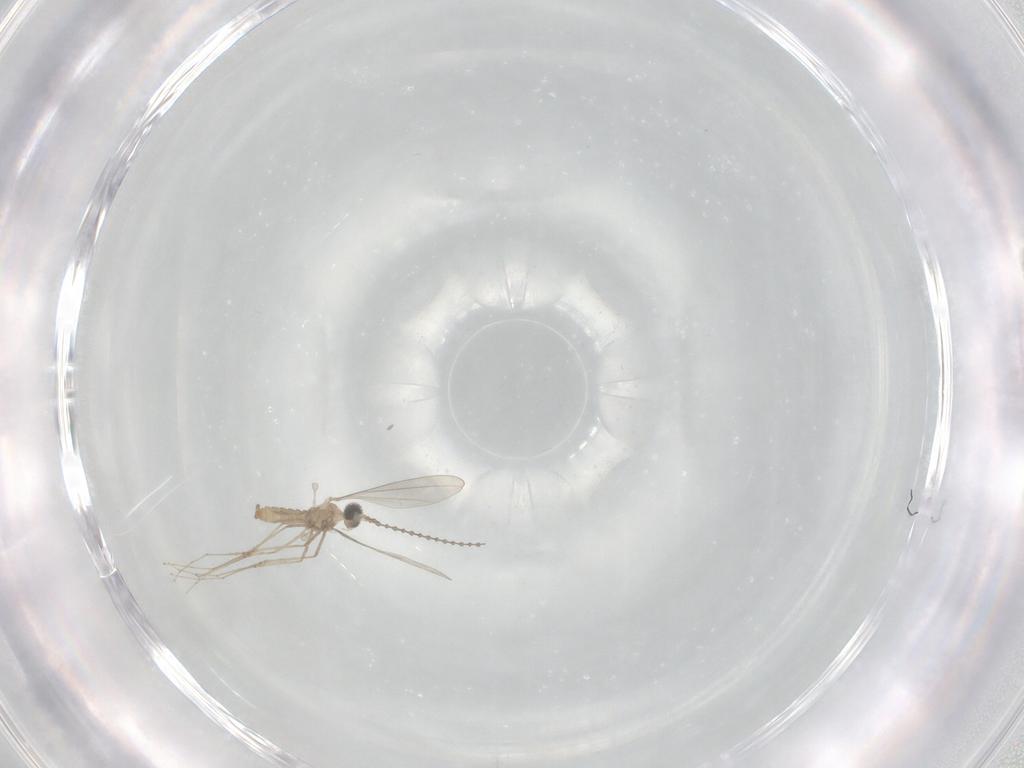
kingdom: Animalia
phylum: Arthropoda
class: Insecta
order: Diptera
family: Cecidomyiidae
